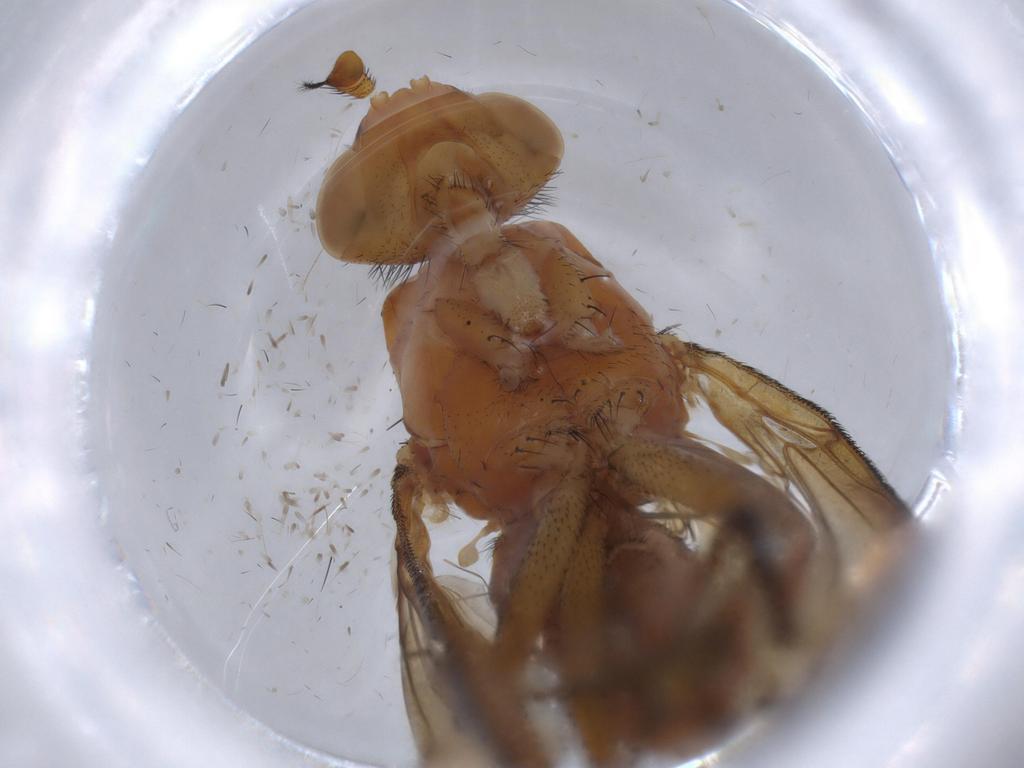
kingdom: Animalia
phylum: Arthropoda
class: Insecta
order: Diptera
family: Sciomyzidae
